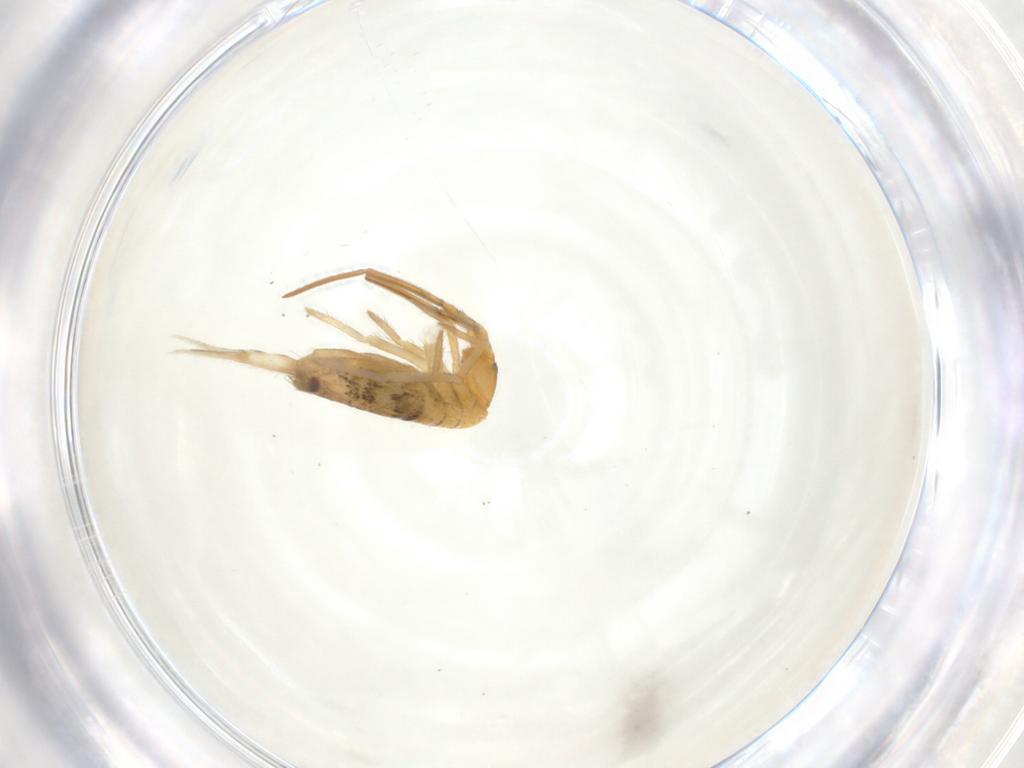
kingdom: Animalia
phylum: Arthropoda
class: Collembola
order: Entomobryomorpha
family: Entomobryidae
